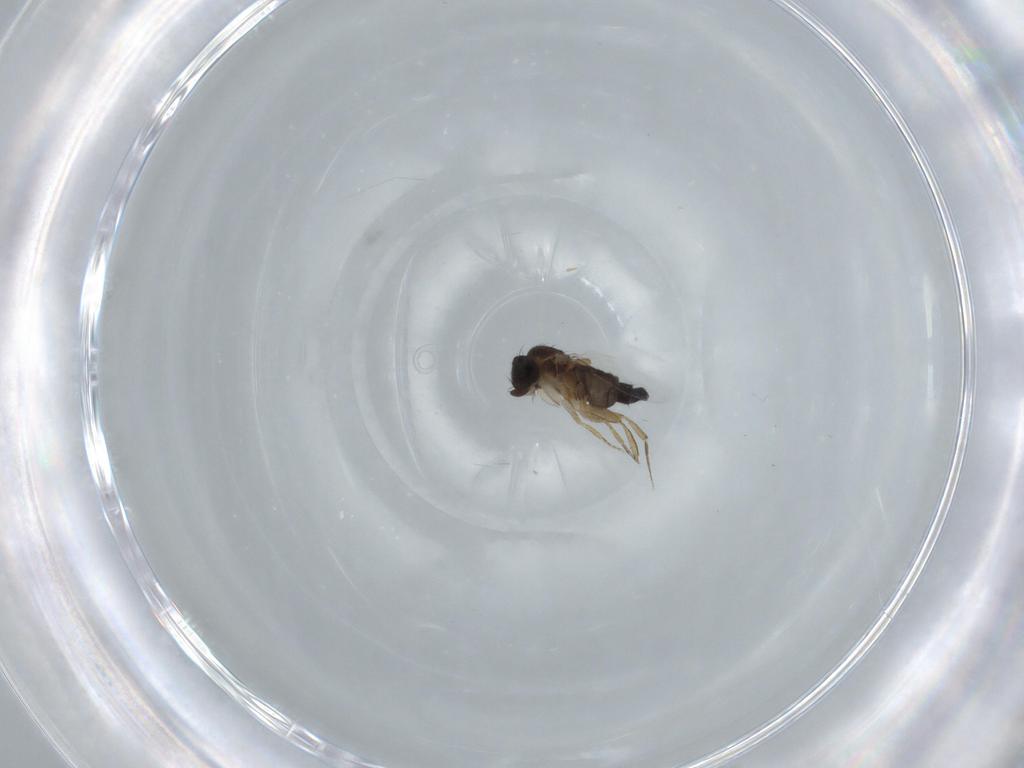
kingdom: Animalia
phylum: Arthropoda
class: Insecta
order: Diptera
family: Phoridae
